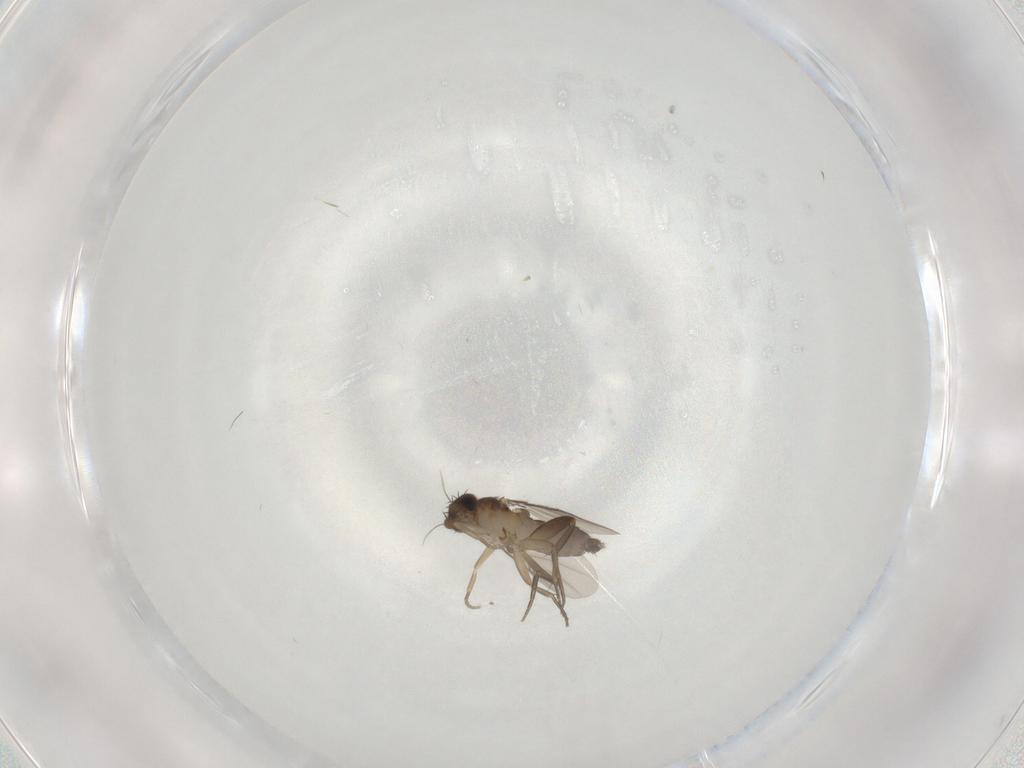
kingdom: Animalia
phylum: Arthropoda
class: Insecta
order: Diptera
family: Phoridae
